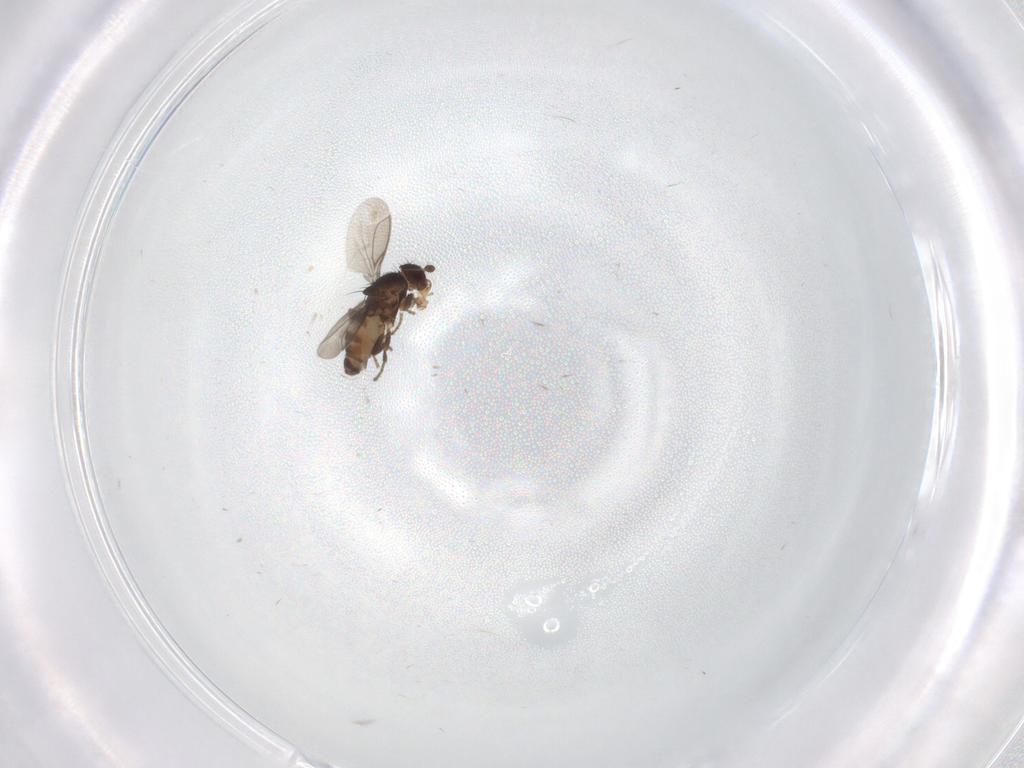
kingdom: Animalia
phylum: Arthropoda
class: Insecta
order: Diptera
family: Sphaeroceridae
